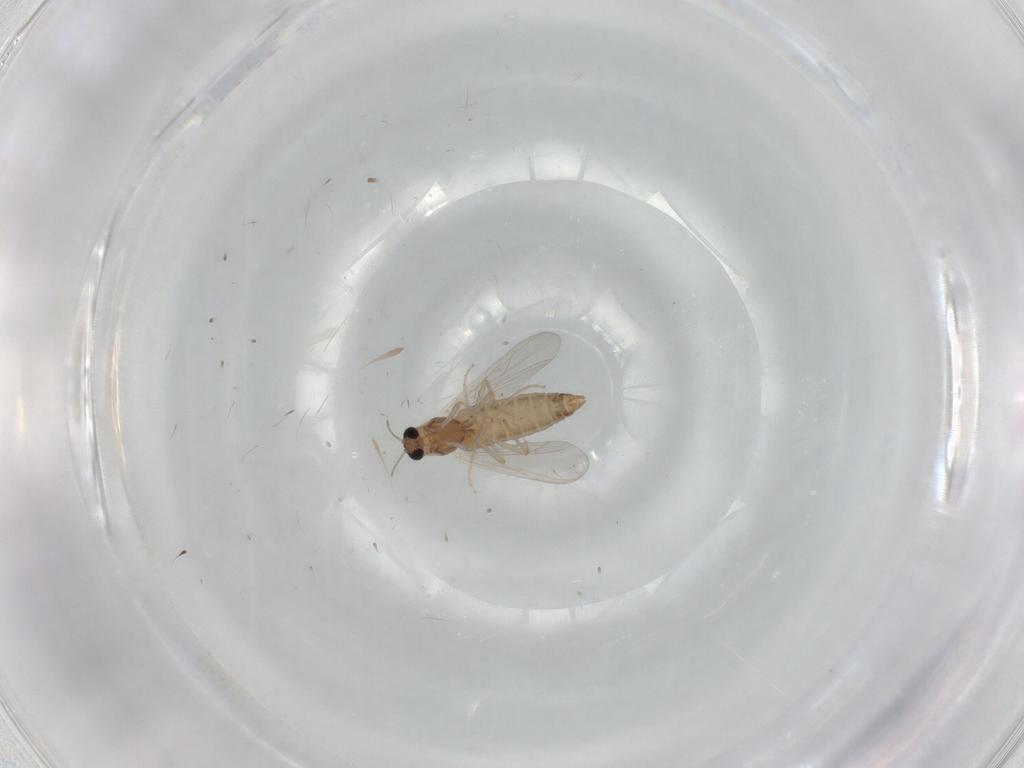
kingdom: Animalia
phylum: Arthropoda
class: Insecta
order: Diptera
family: Chironomidae
